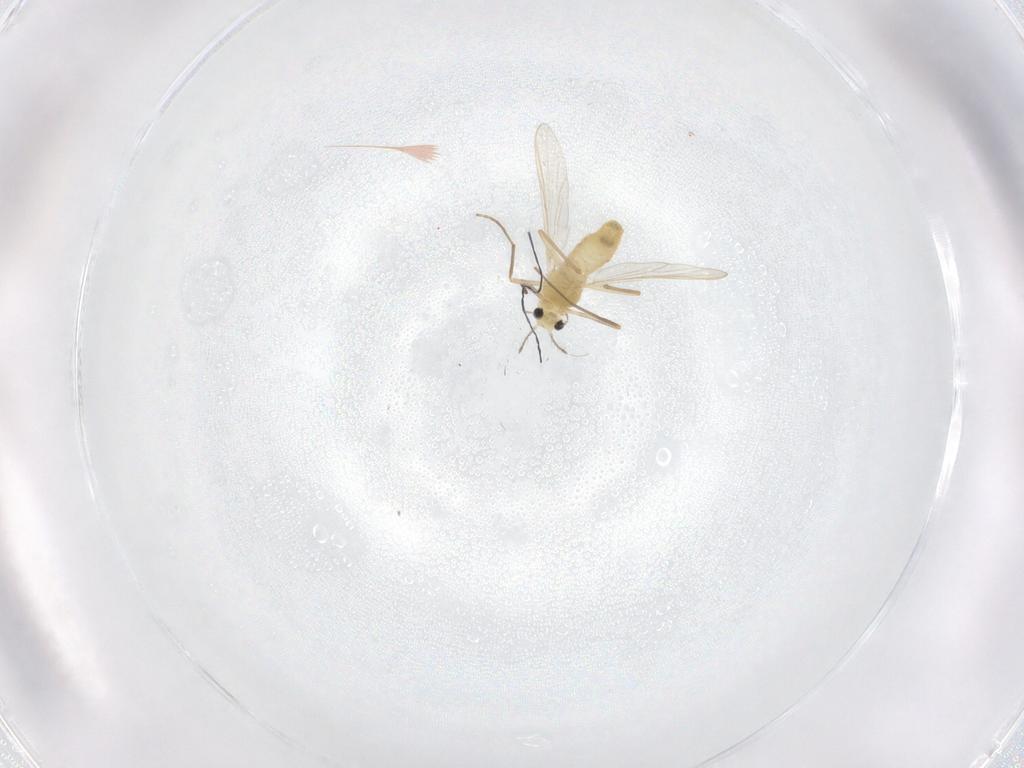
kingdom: Animalia
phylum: Arthropoda
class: Insecta
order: Diptera
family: Chironomidae
